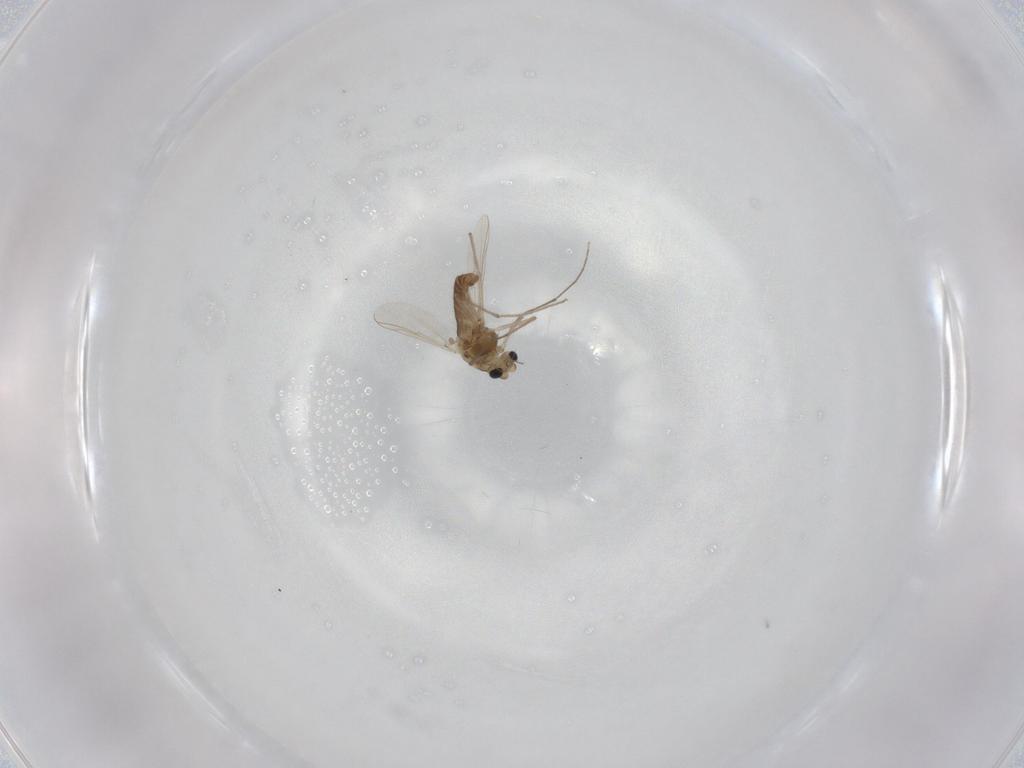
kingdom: Animalia
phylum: Arthropoda
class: Insecta
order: Diptera
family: Chironomidae
